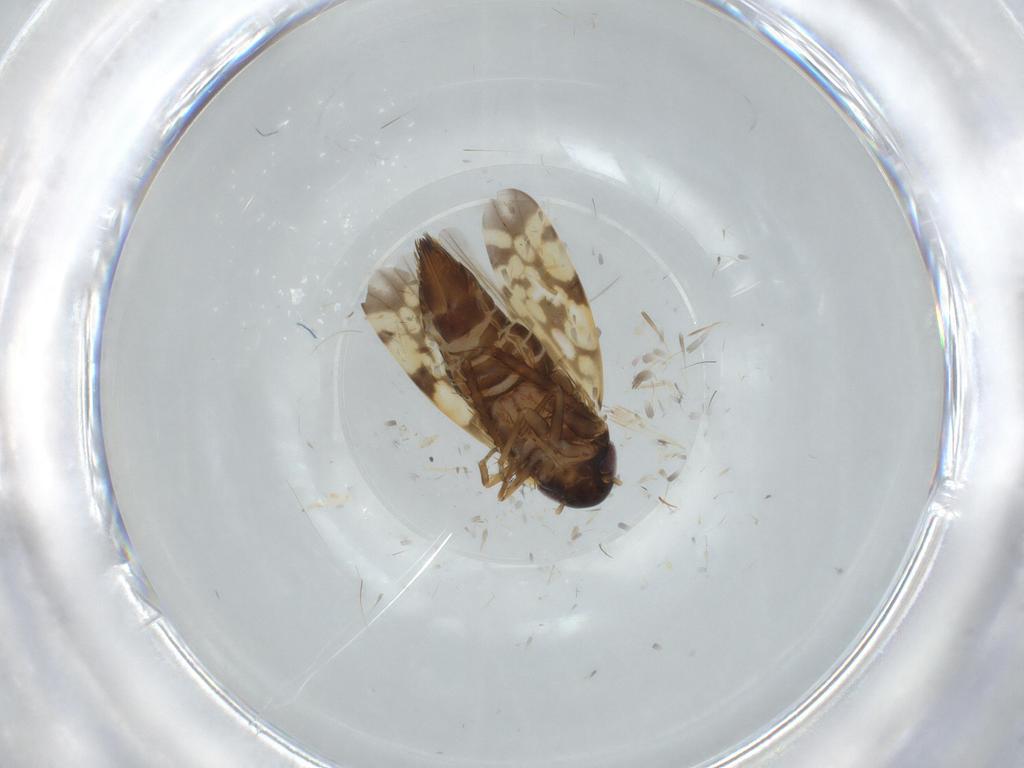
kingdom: Animalia
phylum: Arthropoda
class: Insecta
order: Hemiptera
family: Cicadellidae
